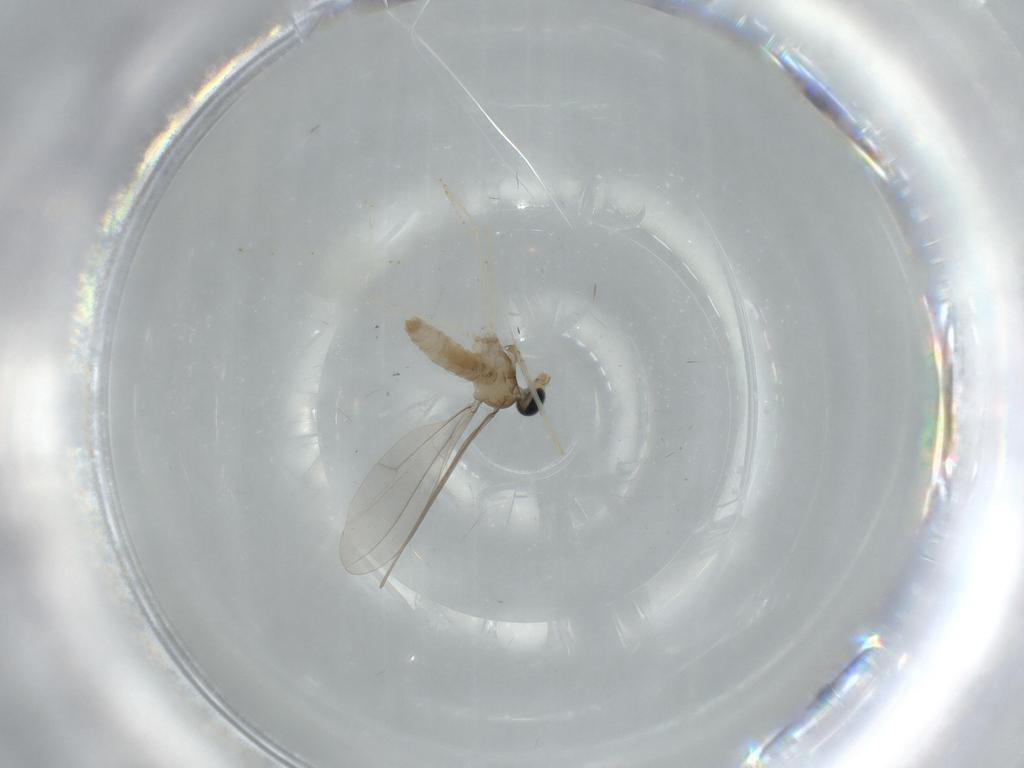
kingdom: Animalia
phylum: Arthropoda
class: Insecta
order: Diptera
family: Cecidomyiidae
